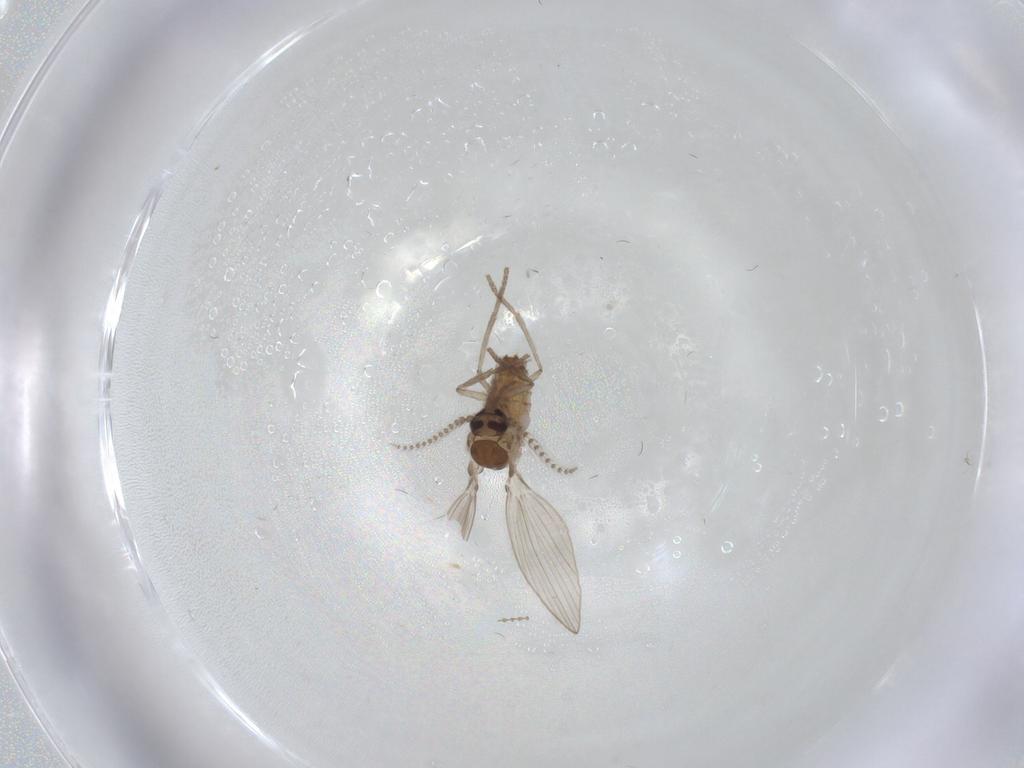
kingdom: Animalia
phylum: Arthropoda
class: Insecta
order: Diptera
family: Psychodidae
